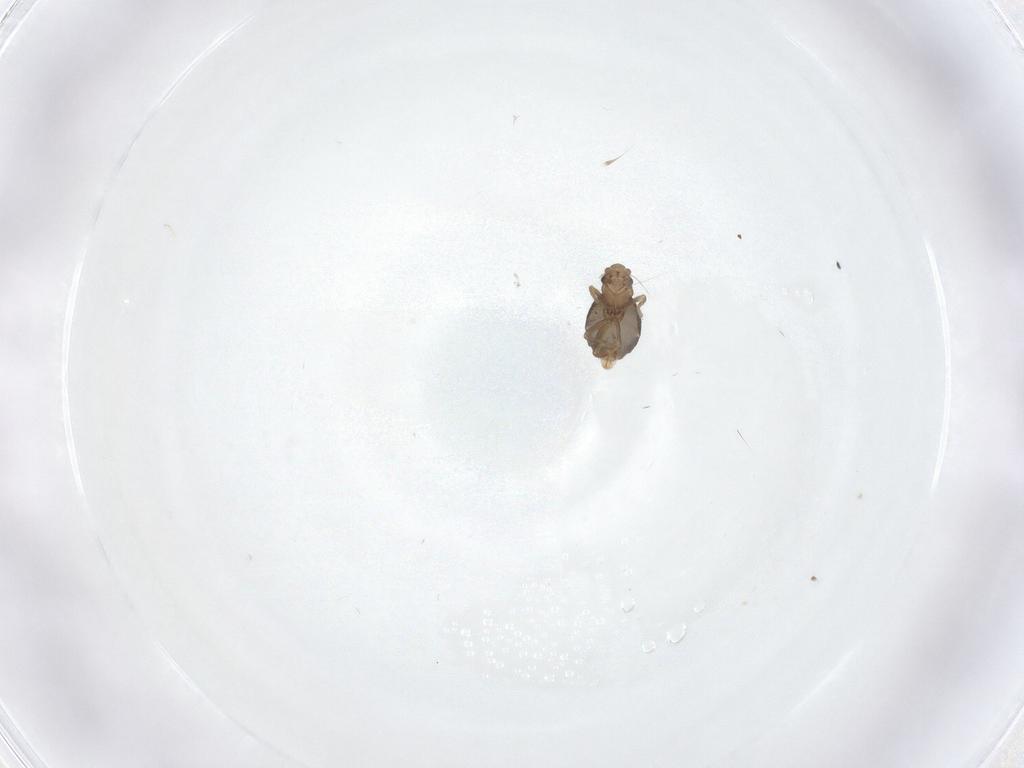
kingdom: Animalia
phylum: Arthropoda
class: Insecta
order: Diptera
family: Phoridae
